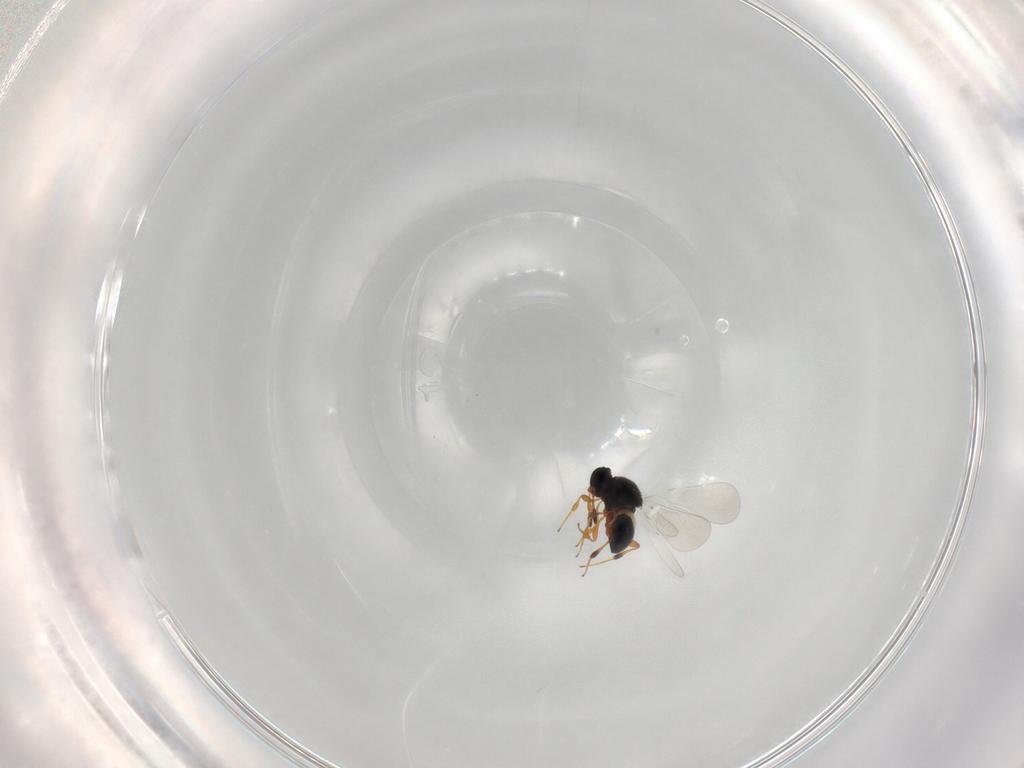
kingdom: Animalia
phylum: Arthropoda
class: Insecta
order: Hymenoptera
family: Platygastridae
